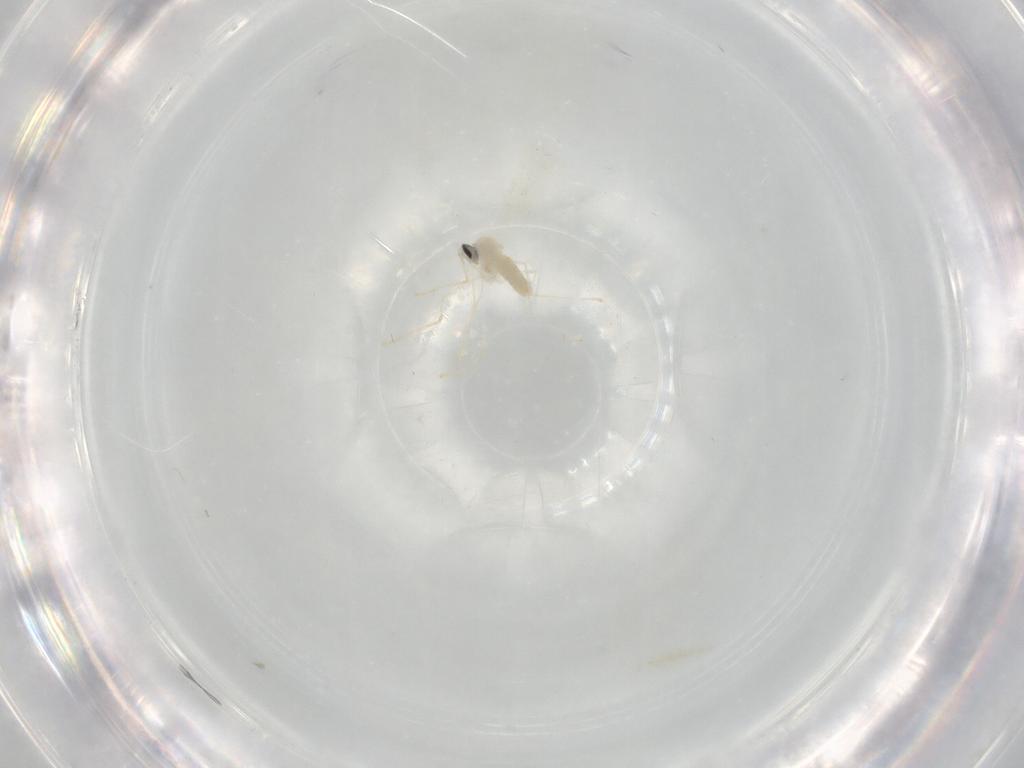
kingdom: Animalia
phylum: Arthropoda
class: Insecta
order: Diptera
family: Cecidomyiidae
